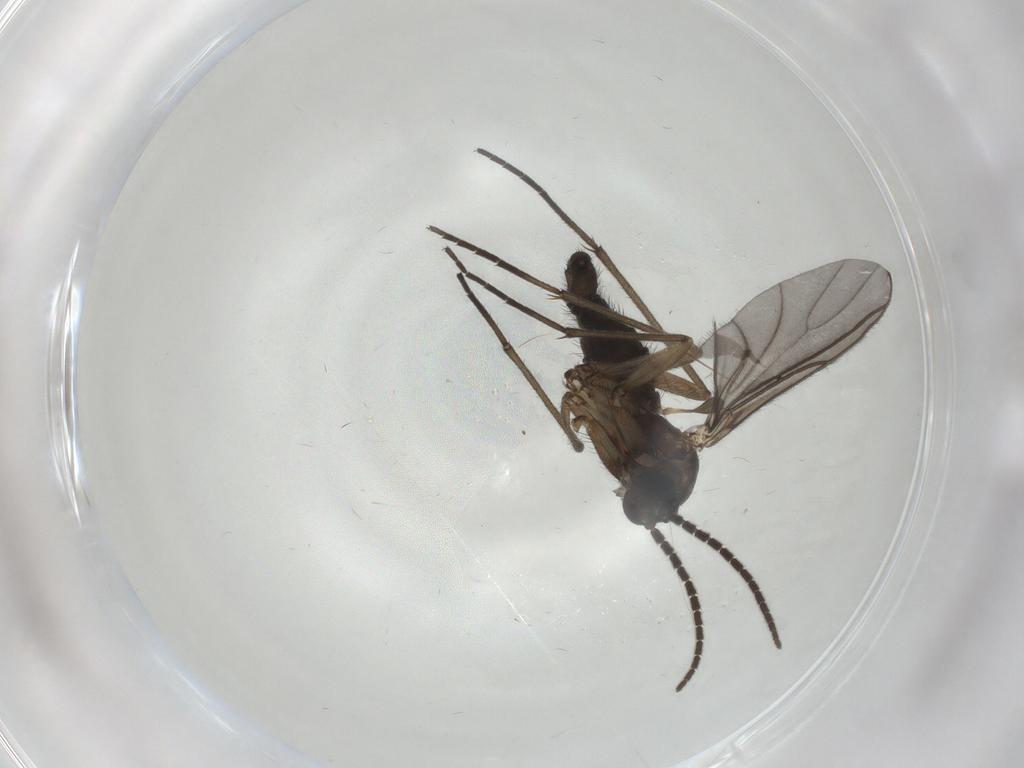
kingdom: Animalia
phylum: Arthropoda
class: Insecta
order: Diptera
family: Sciaridae
